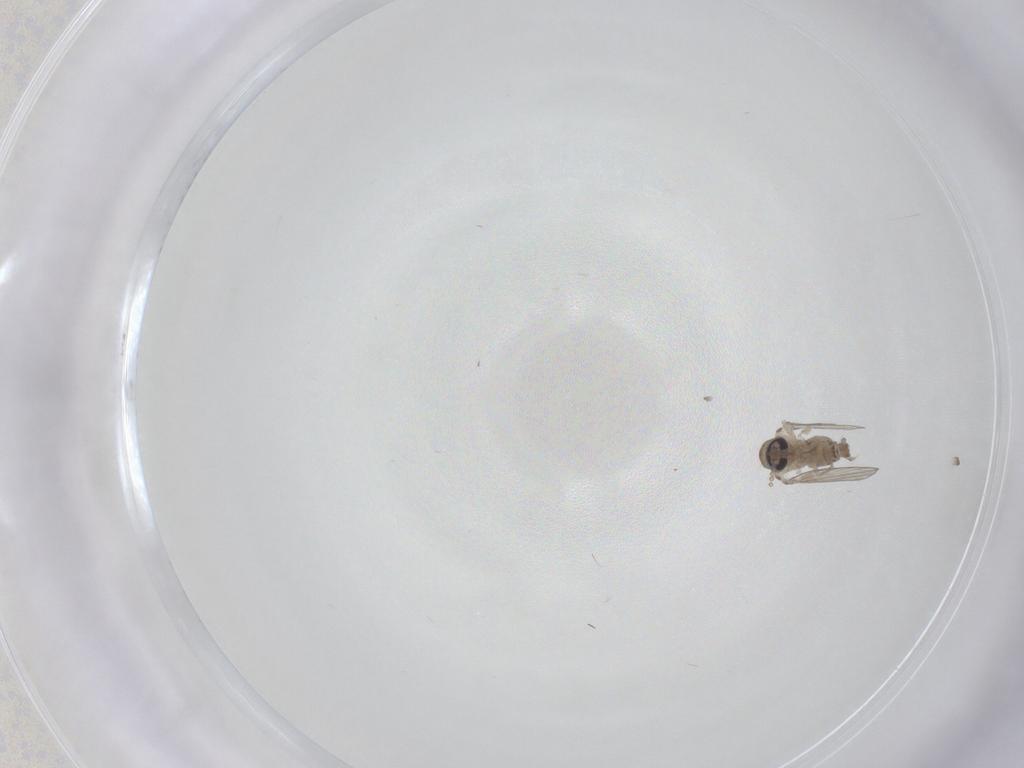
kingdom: Animalia
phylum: Arthropoda
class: Insecta
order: Diptera
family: Psychodidae
